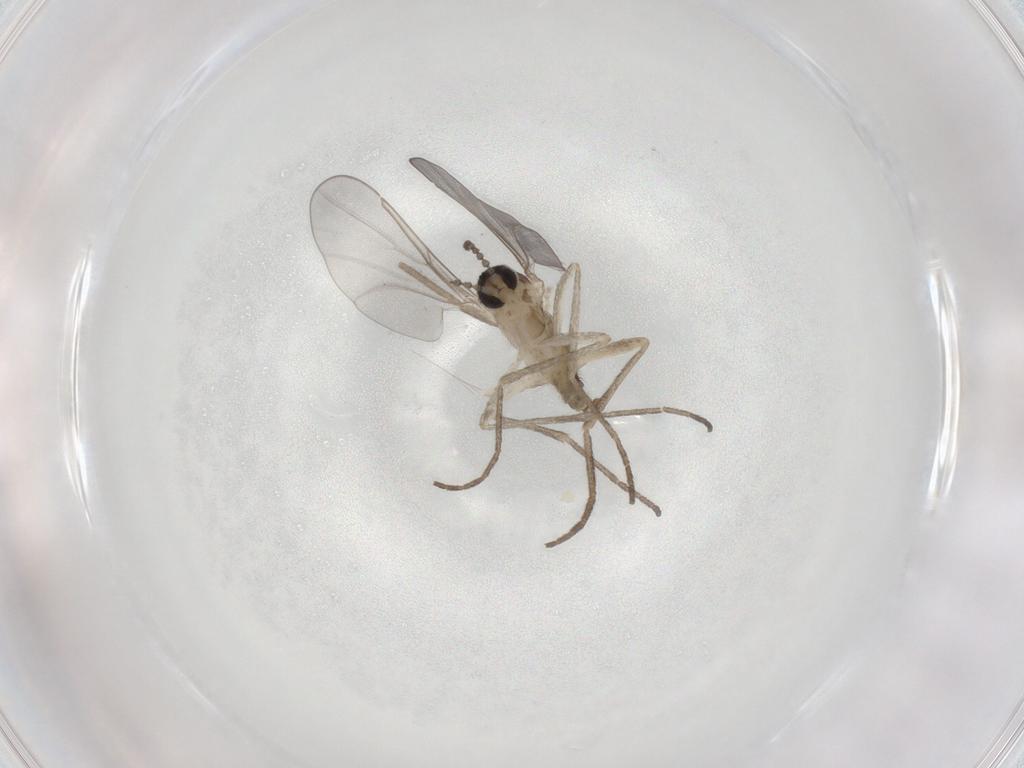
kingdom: Animalia
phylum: Arthropoda
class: Insecta
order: Diptera
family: Cecidomyiidae
